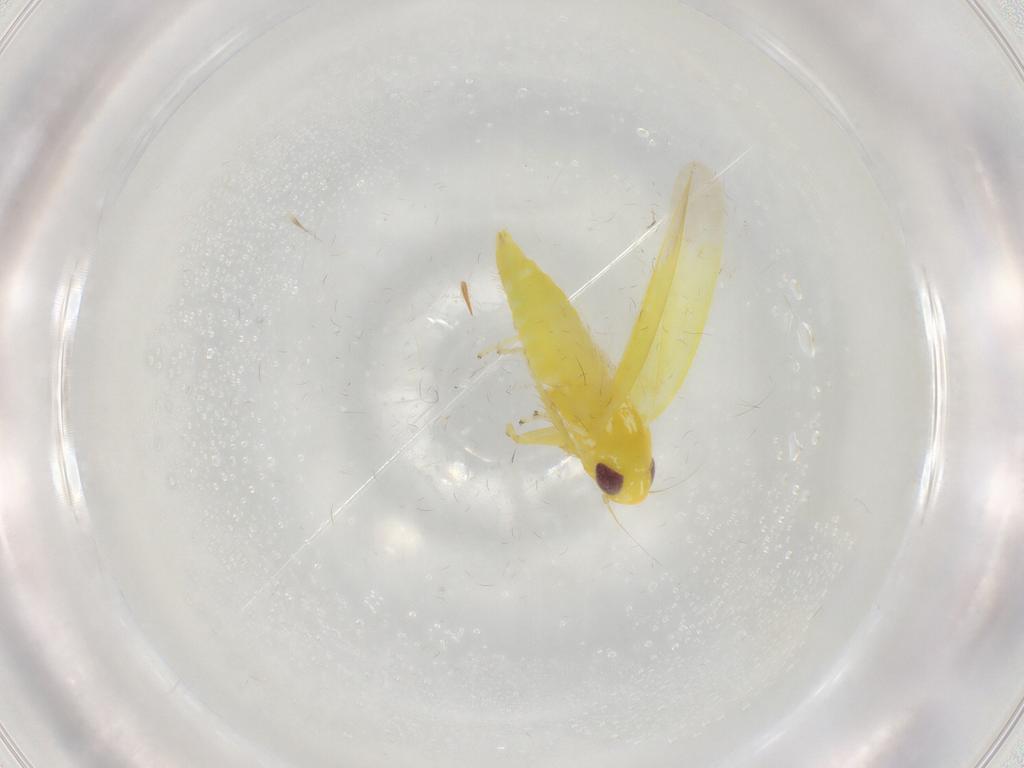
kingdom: Animalia
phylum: Arthropoda
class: Insecta
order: Hemiptera
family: Cicadellidae
